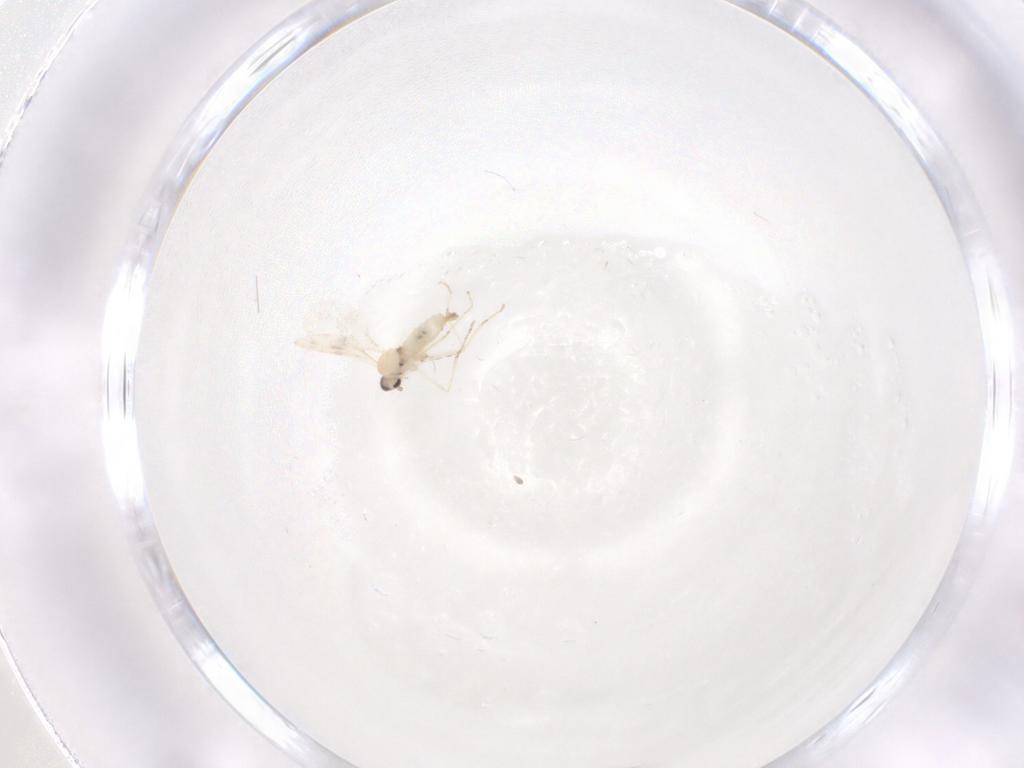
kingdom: Animalia
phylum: Arthropoda
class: Insecta
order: Diptera
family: Cecidomyiidae
